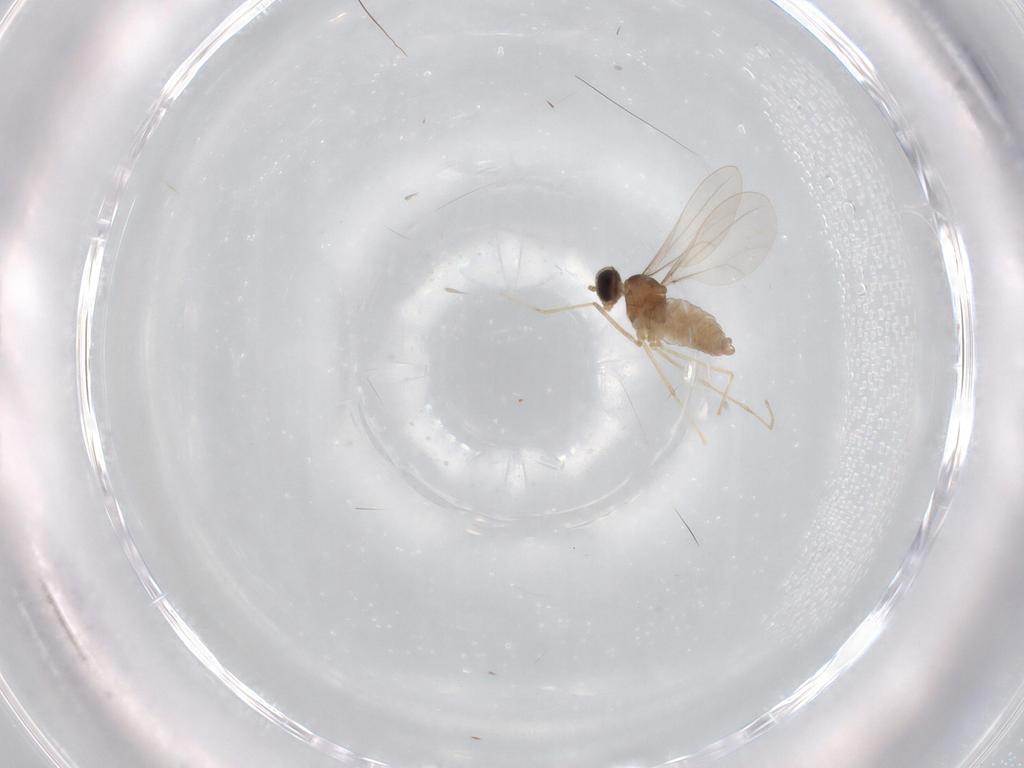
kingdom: Animalia
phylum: Arthropoda
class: Insecta
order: Diptera
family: Cecidomyiidae
